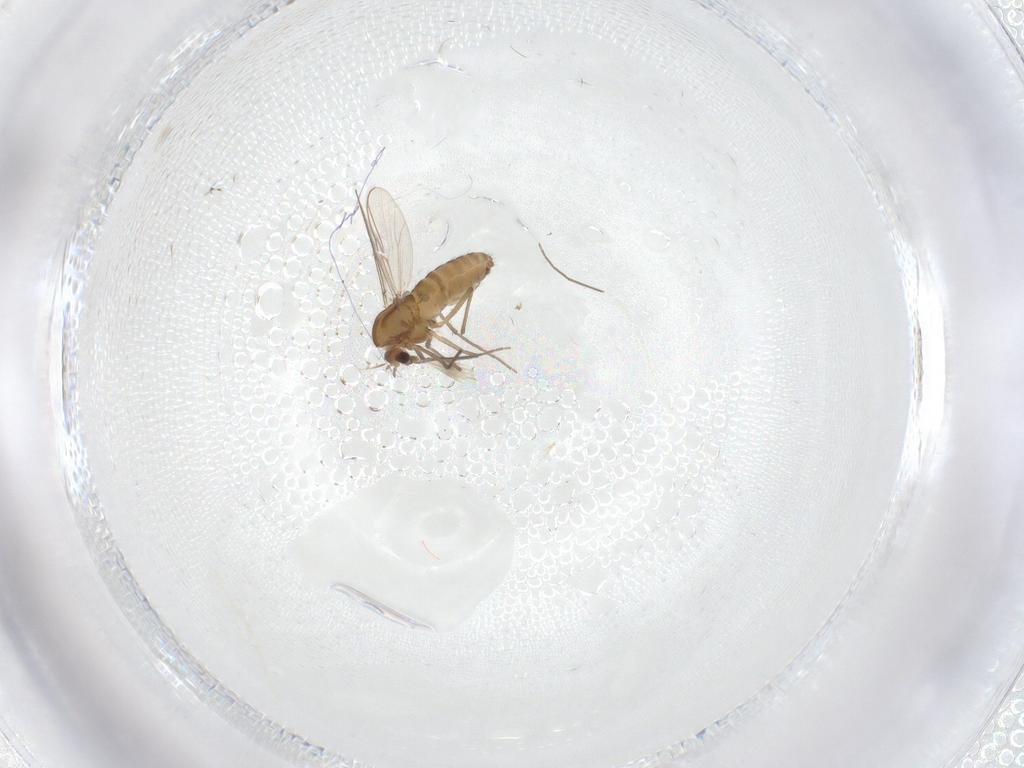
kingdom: Animalia
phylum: Arthropoda
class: Insecta
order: Diptera
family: Chironomidae
